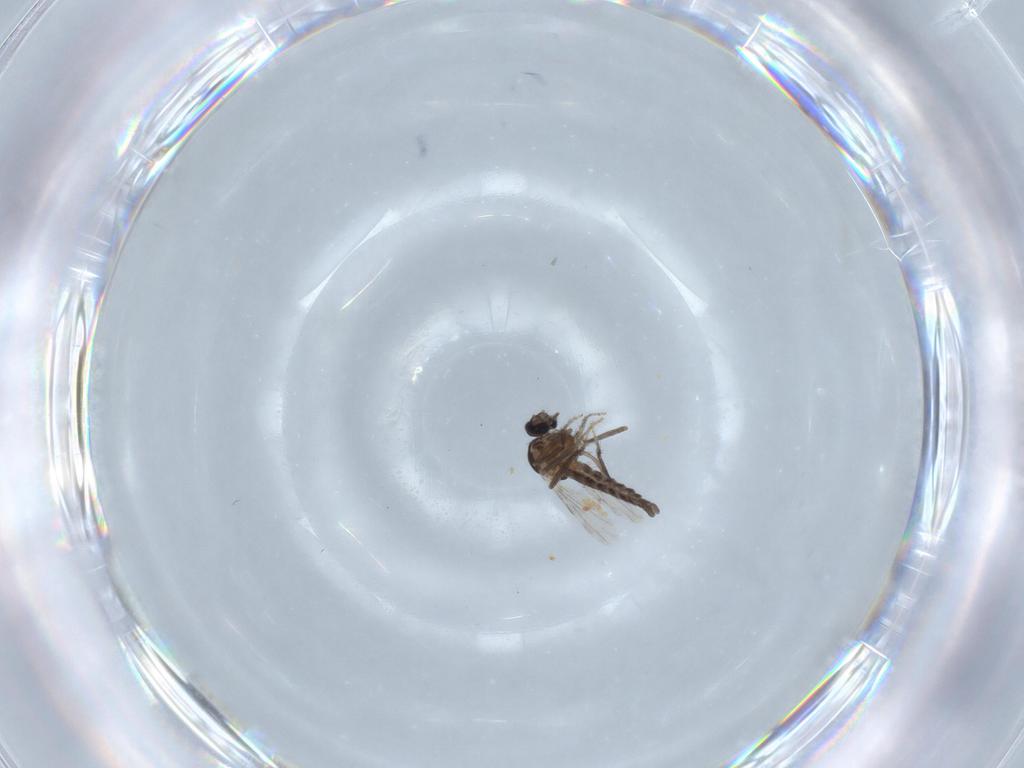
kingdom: Animalia
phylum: Arthropoda
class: Insecta
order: Diptera
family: Ceratopogonidae
